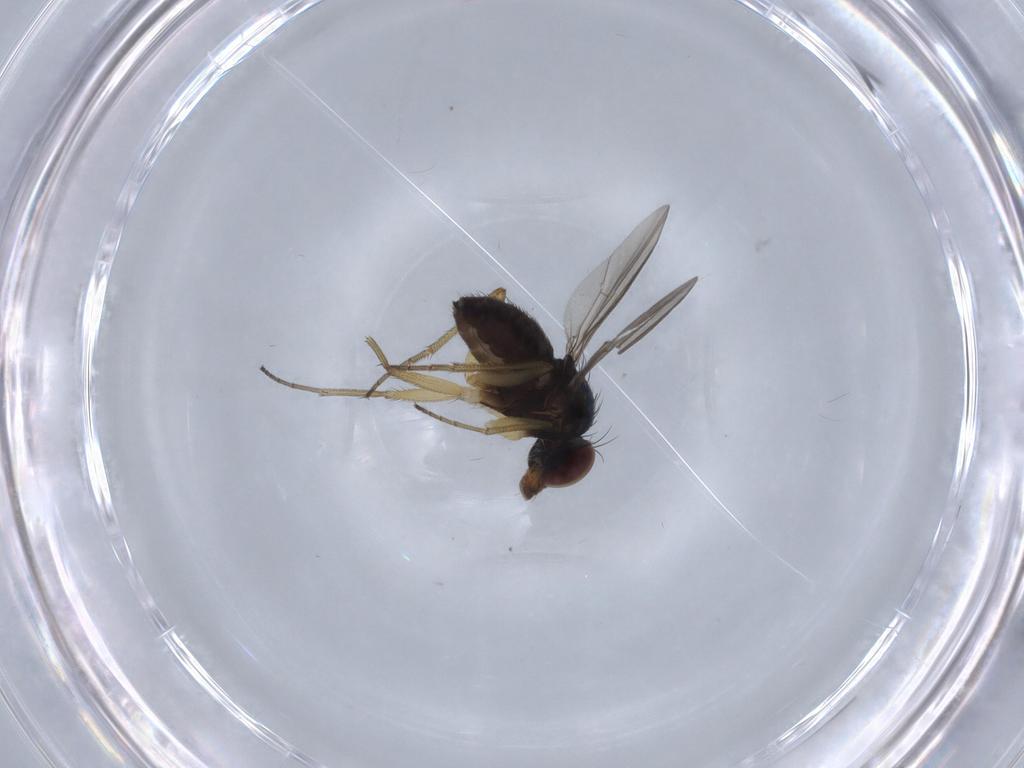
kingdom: Animalia
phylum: Arthropoda
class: Insecta
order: Diptera
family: Dolichopodidae
